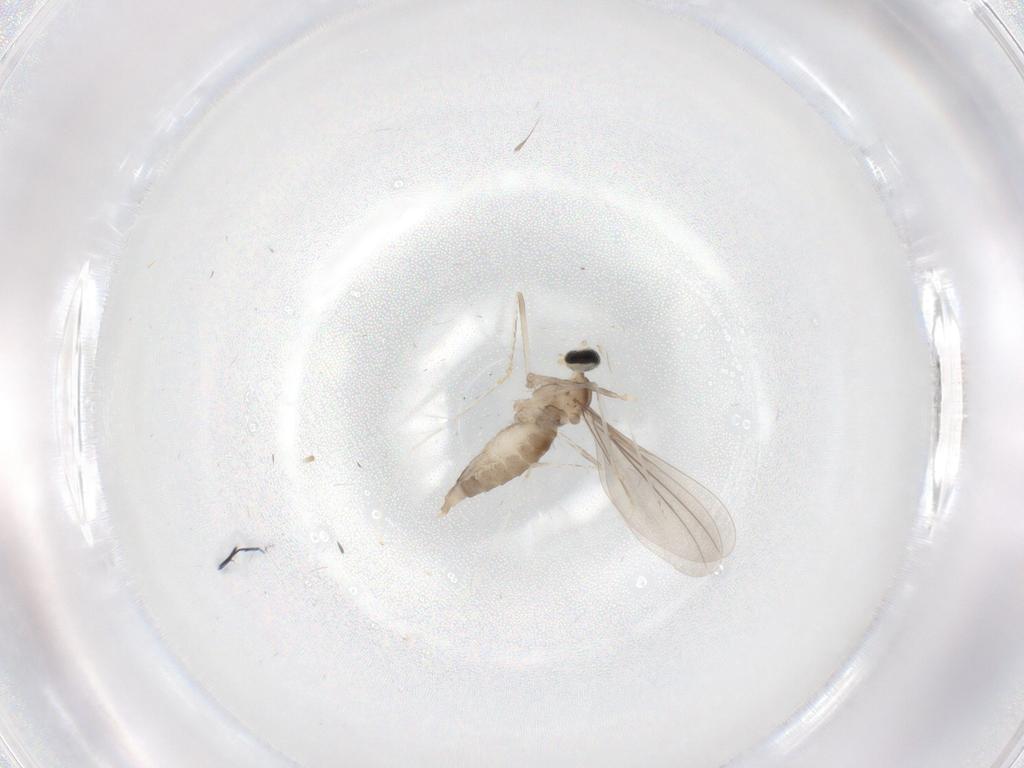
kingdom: Animalia
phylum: Arthropoda
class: Insecta
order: Diptera
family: Cecidomyiidae
